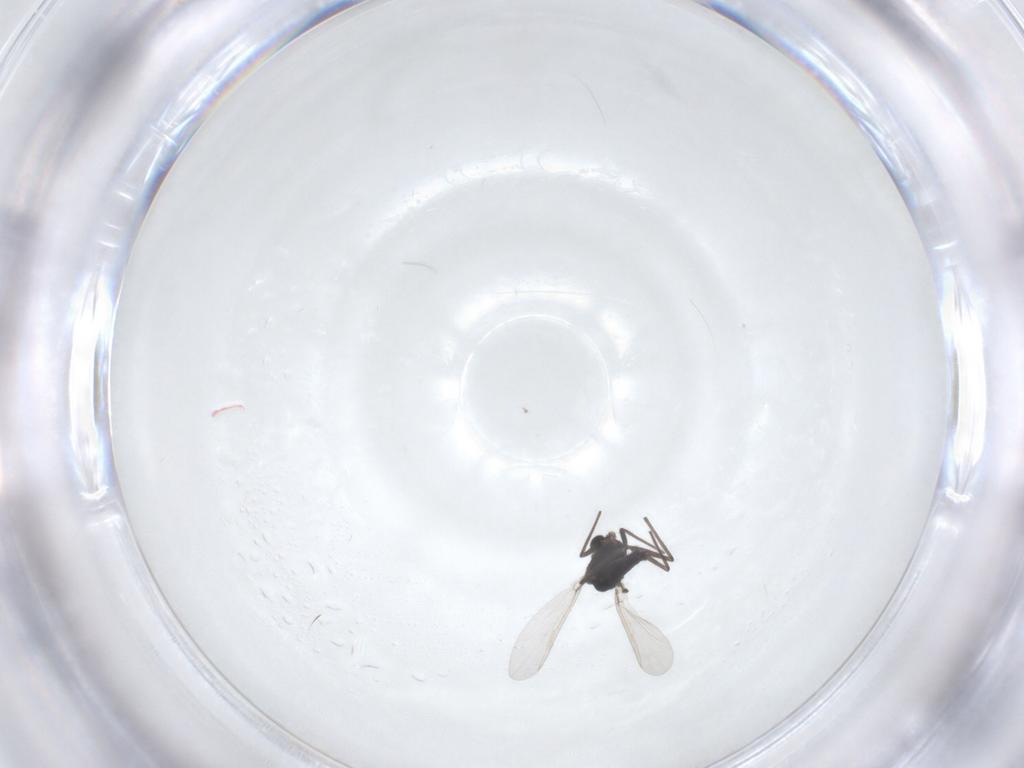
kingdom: Animalia
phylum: Arthropoda
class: Insecta
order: Diptera
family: Chironomidae
